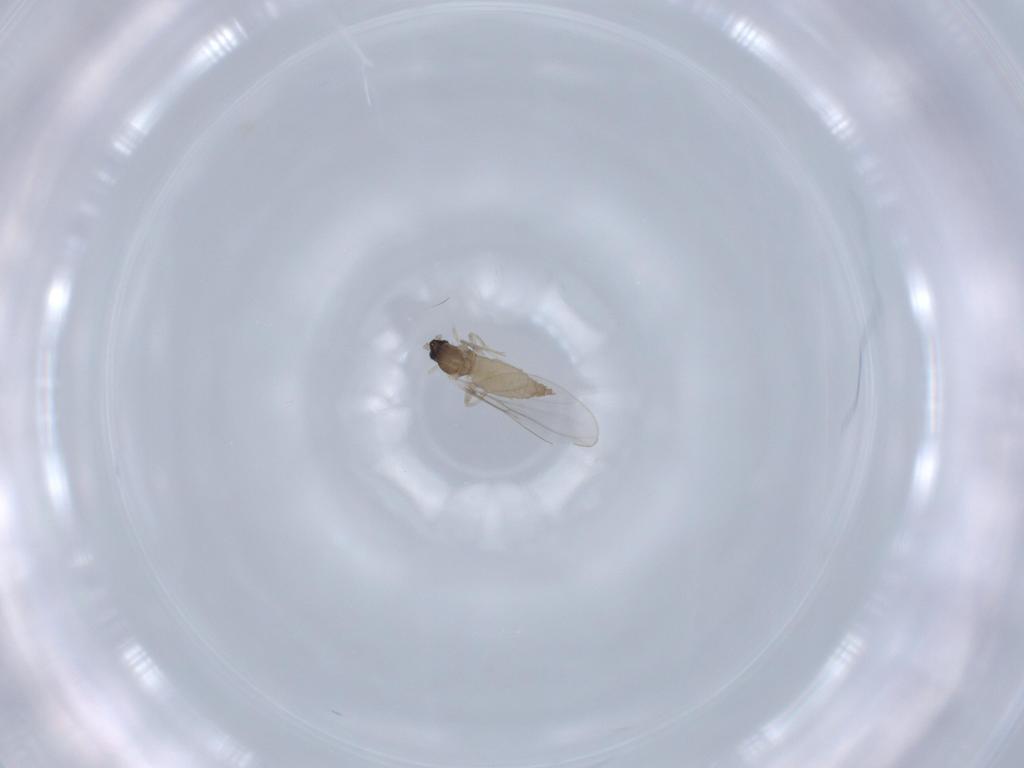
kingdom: Animalia
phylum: Arthropoda
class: Insecta
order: Diptera
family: Cecidomyiidae
